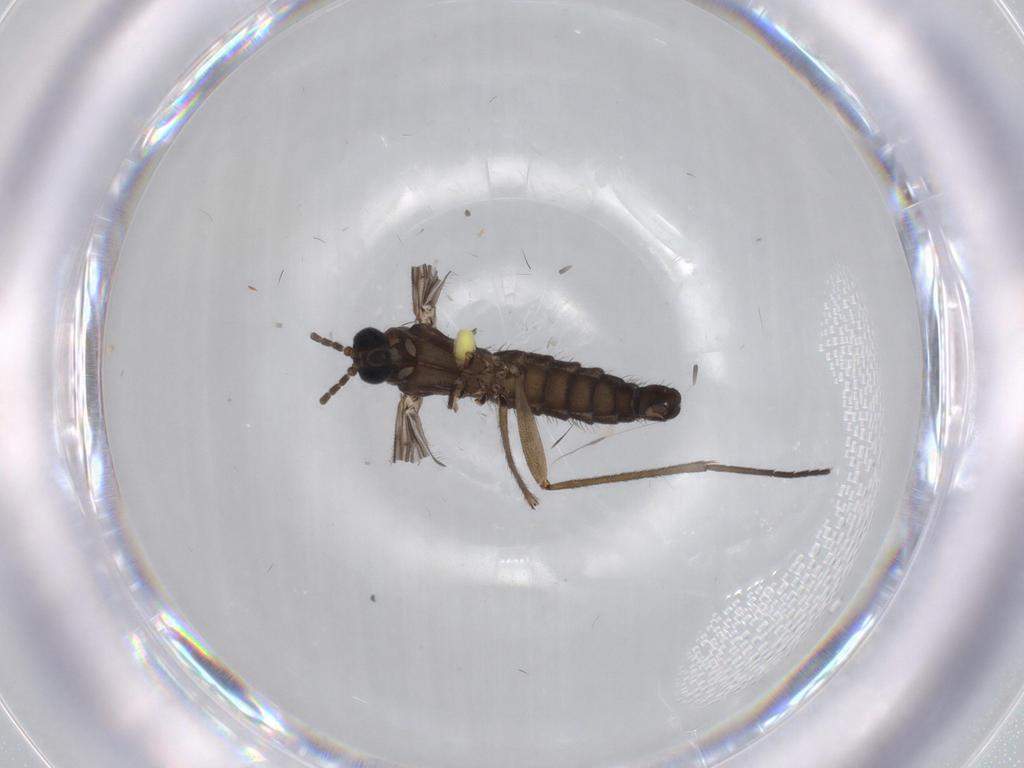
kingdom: Animalia
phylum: Arthropoda
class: Insecta
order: Diptera
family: Sciaridae
